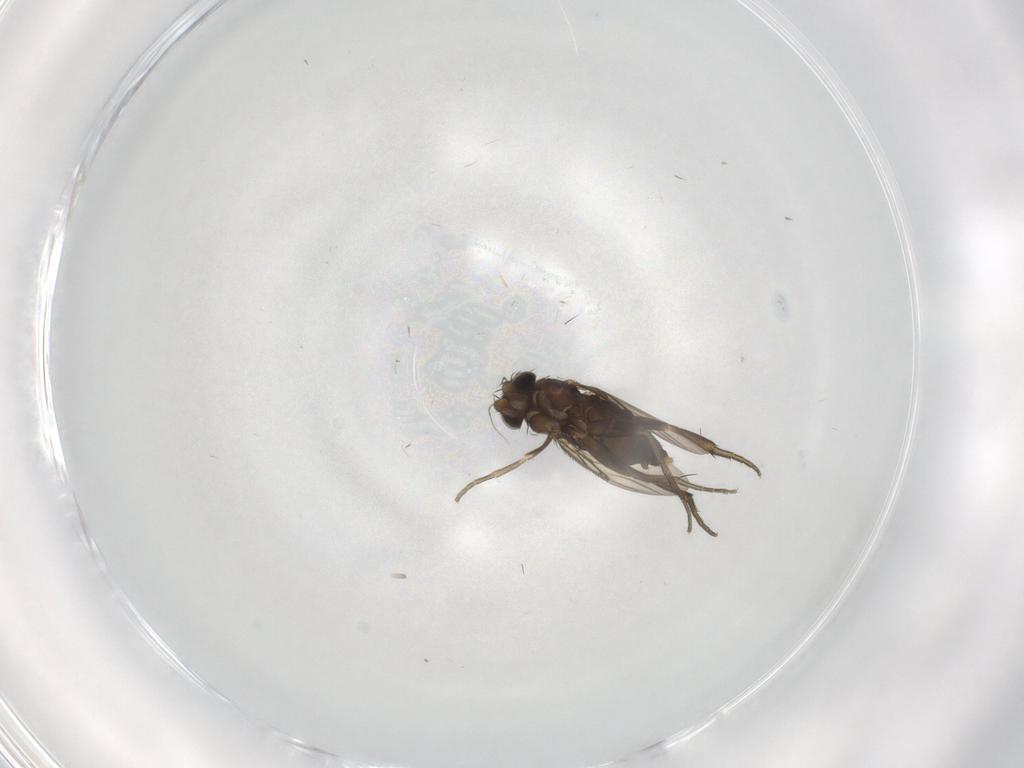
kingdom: Animalia
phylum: Arthropoda
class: Insecta
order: Diptera
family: Phoridae
